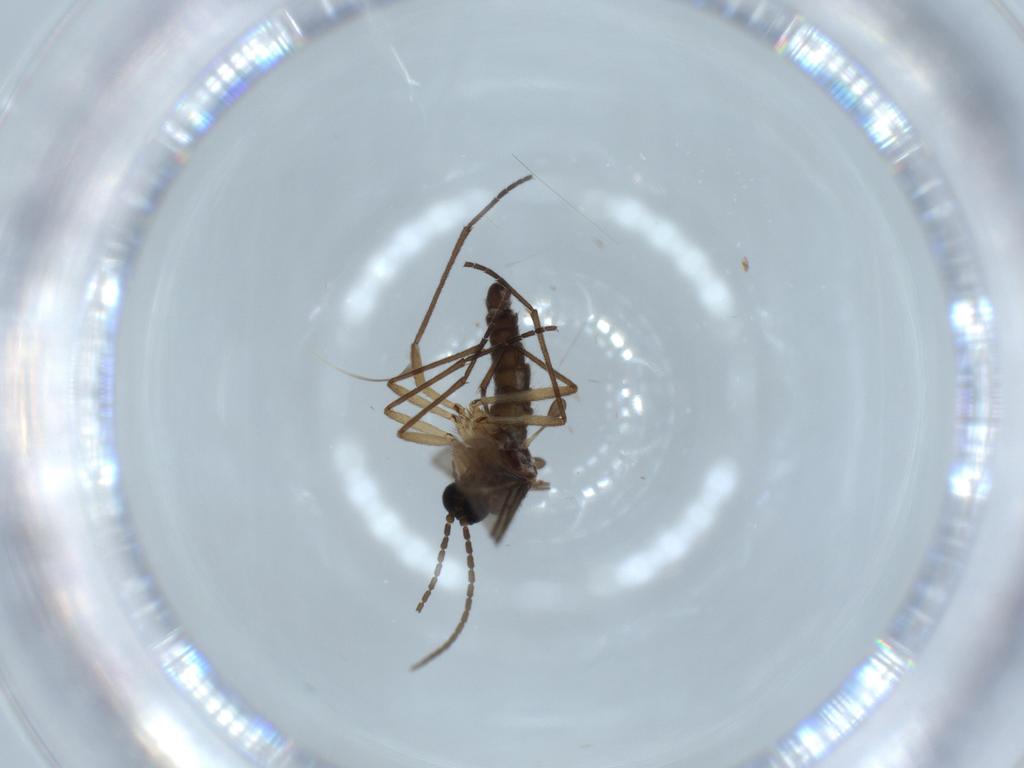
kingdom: Animalia
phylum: Arthropoda
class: Insecta
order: Diptera
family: Sciaridae
